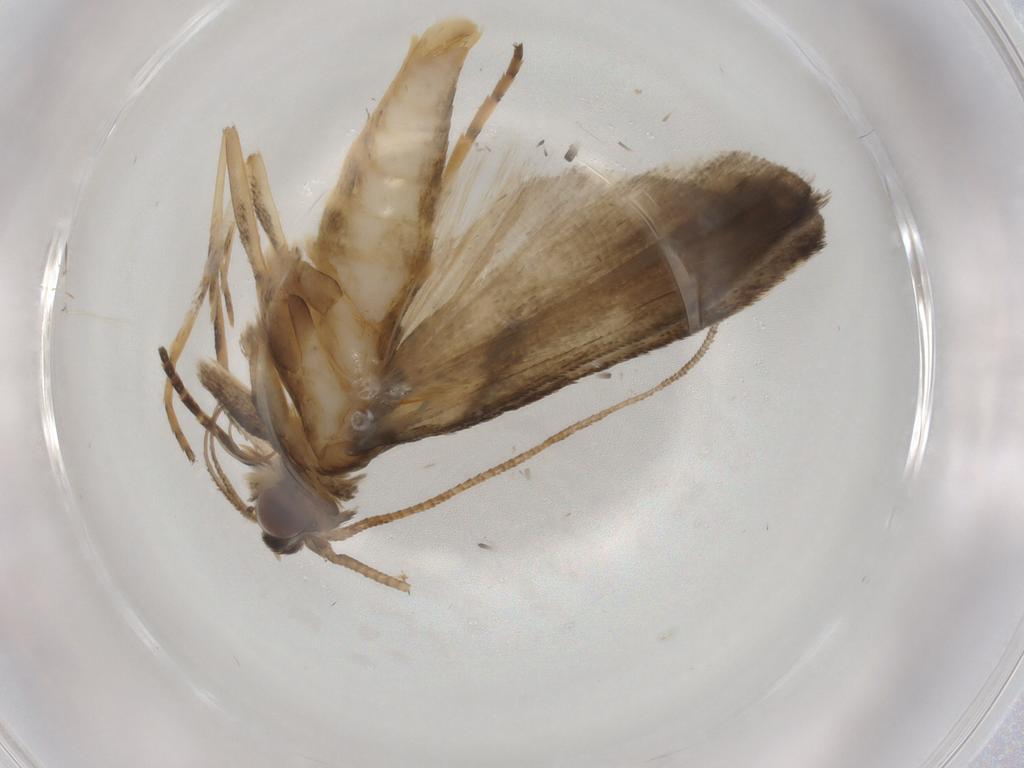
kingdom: Animalia
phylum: Arthropoda
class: Insecta
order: Lepidoptera
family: Noctuidae
